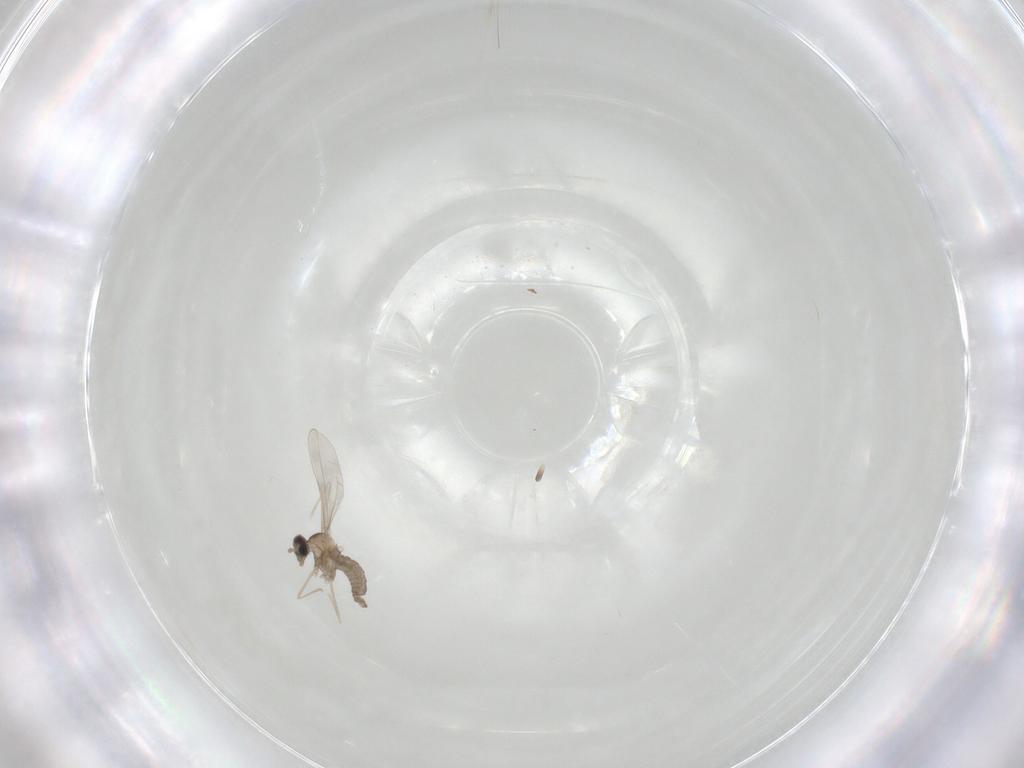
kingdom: Animalia
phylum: Arthropoda
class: Insecta
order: Diptera
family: Cecidomyiidae
